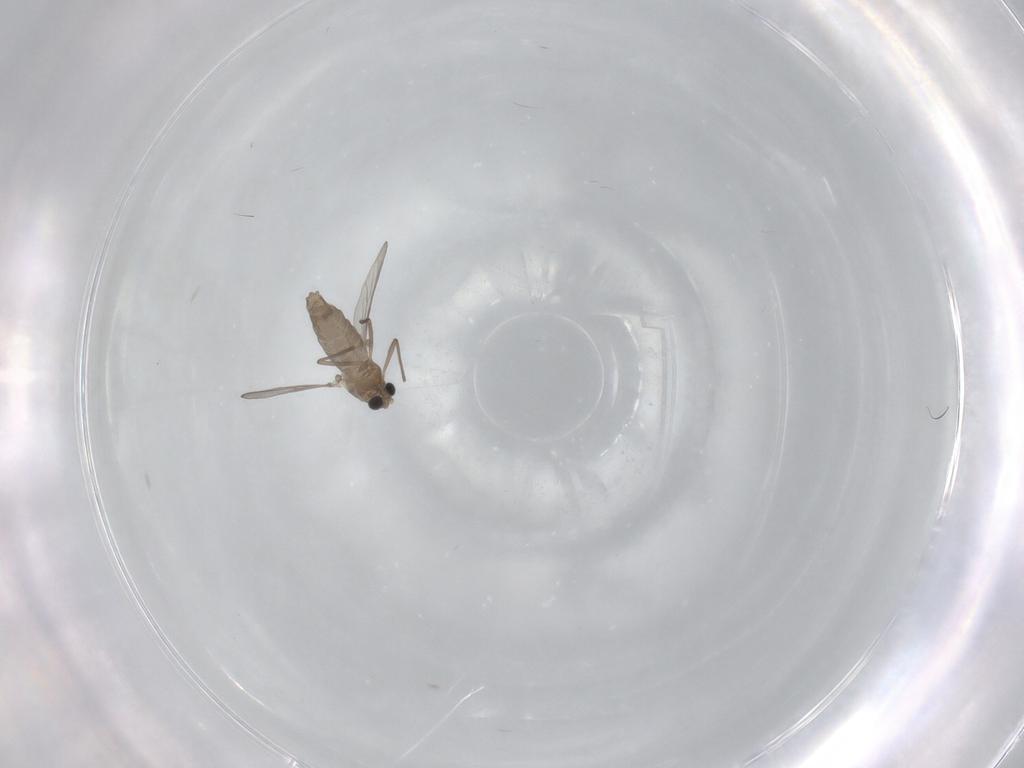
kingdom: Animalia
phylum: Arthropoda
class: Insecta
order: Diptera
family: Chironomidae
